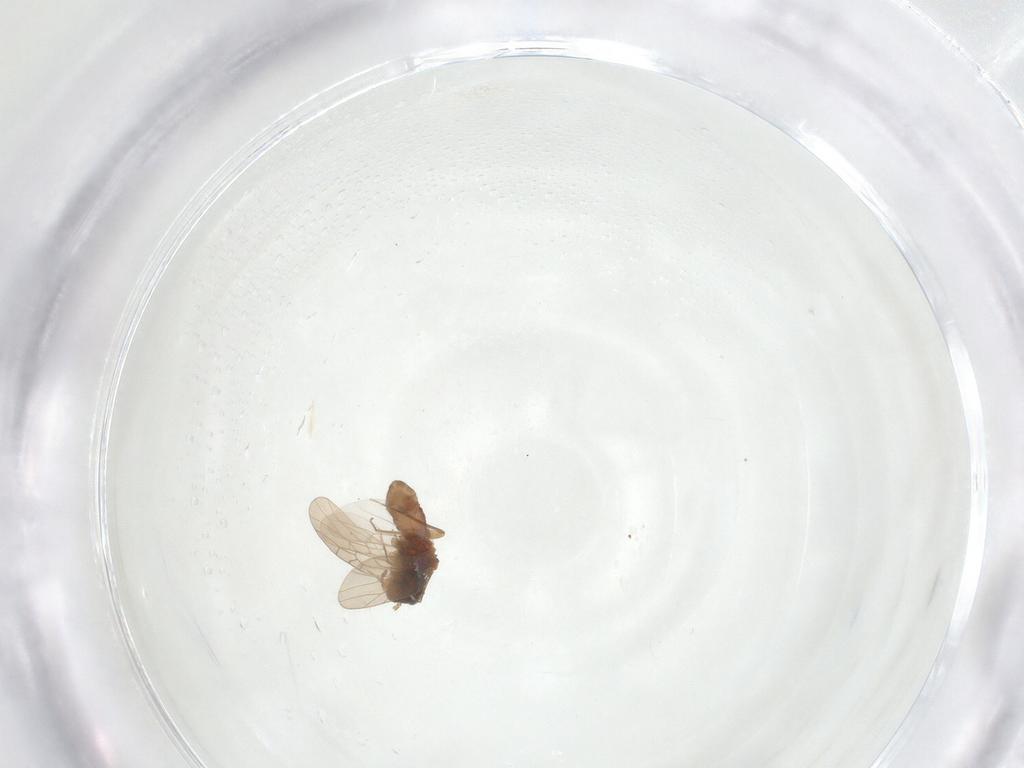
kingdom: Animalia
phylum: Arthropoda
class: Insecta
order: Psocodea
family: Lepidopsocidae
